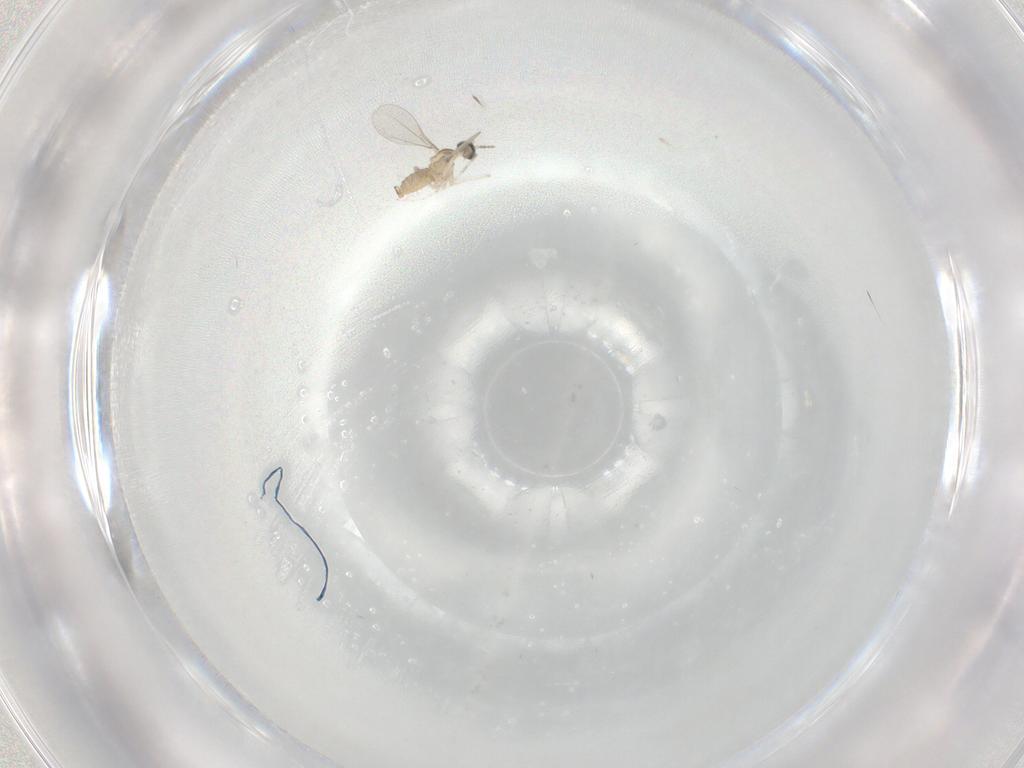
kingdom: Animalia
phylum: Arthropoda
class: Insecta
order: Diptera
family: Cecidomyiidae
